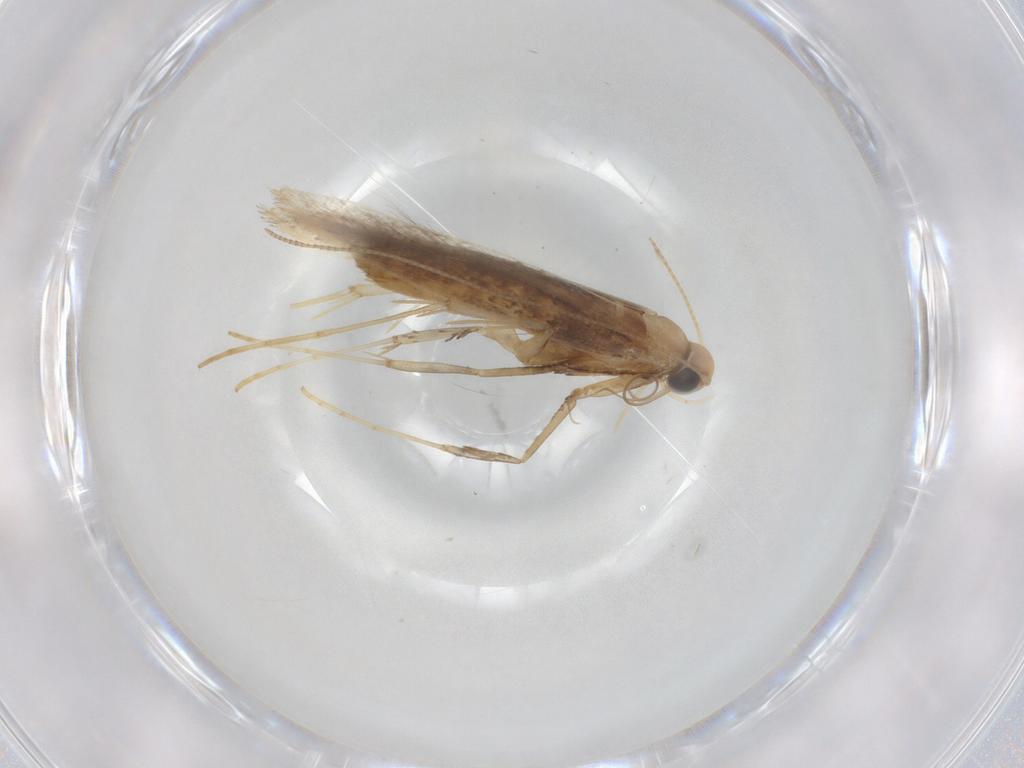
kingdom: Animalia
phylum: Arthropoda
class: Insecta
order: Lepidoptera
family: Gracillariidae
